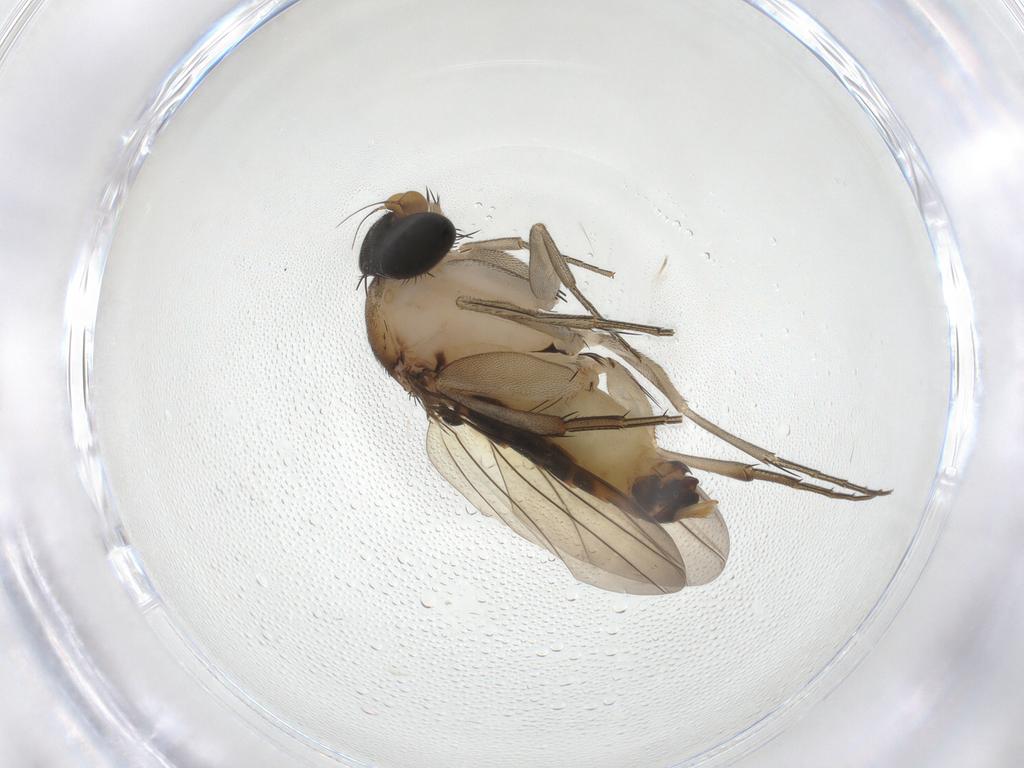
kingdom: Animalia
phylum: Arthropoda
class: Insecta
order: Diptera
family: Phoridae
